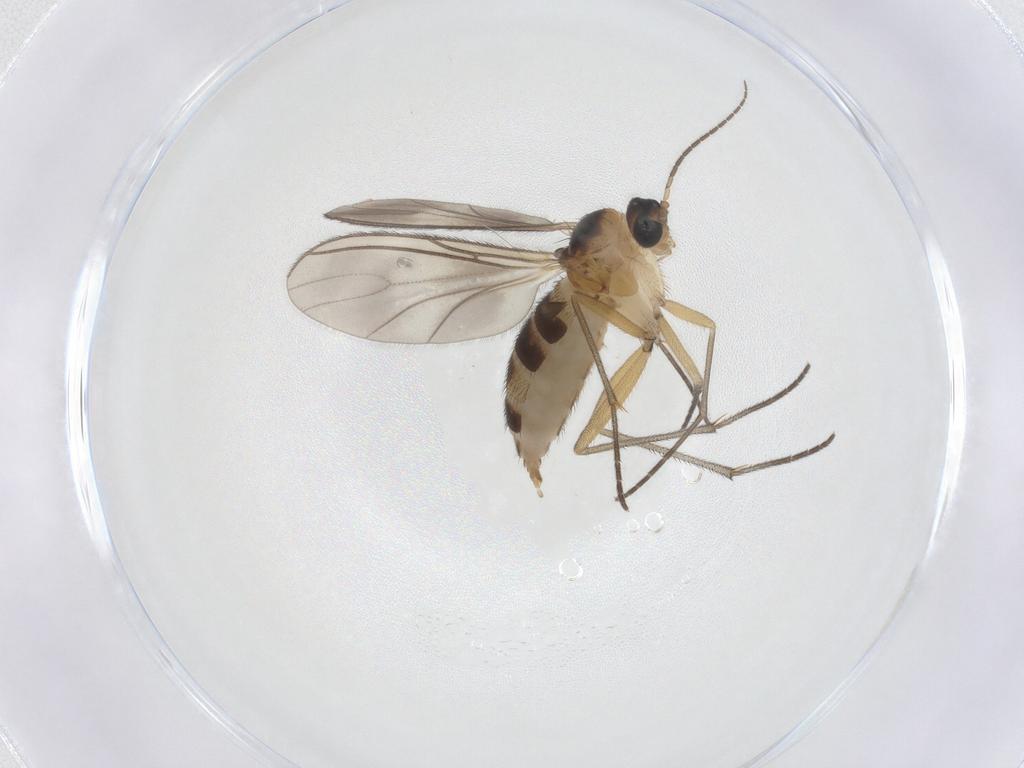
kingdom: Animalia
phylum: Arthropoda
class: Insecta
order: Diptera
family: Sciaridae
